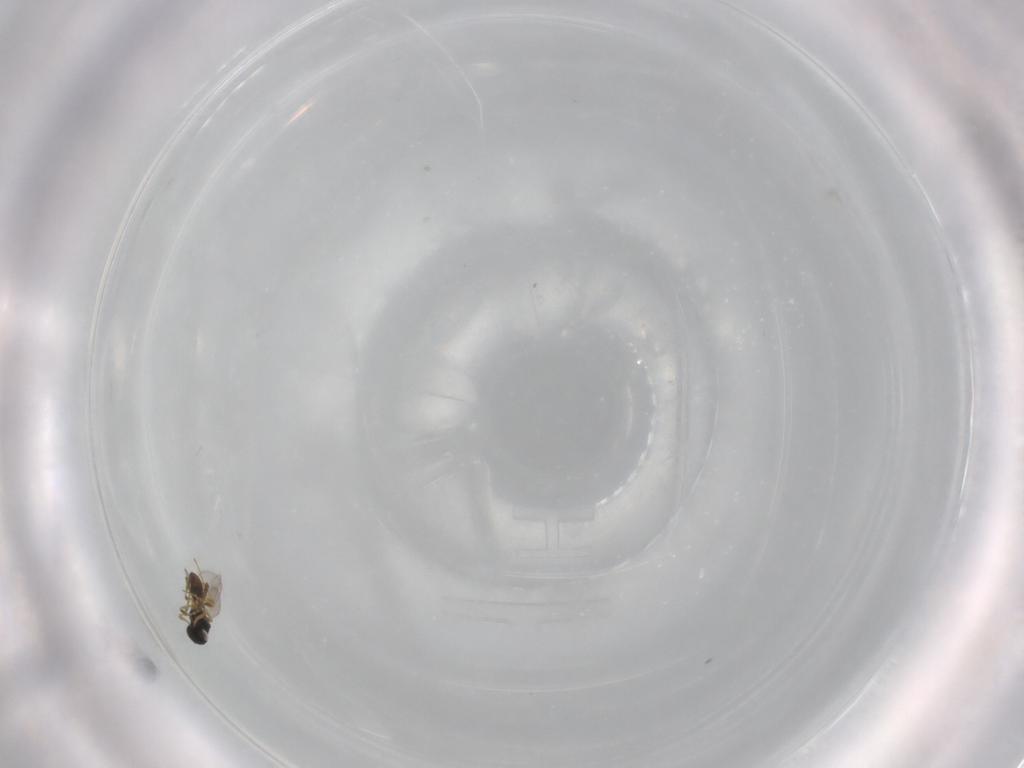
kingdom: Animalia
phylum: Arthropoda
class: Insecta
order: Hymenoptera
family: Platygastridae
